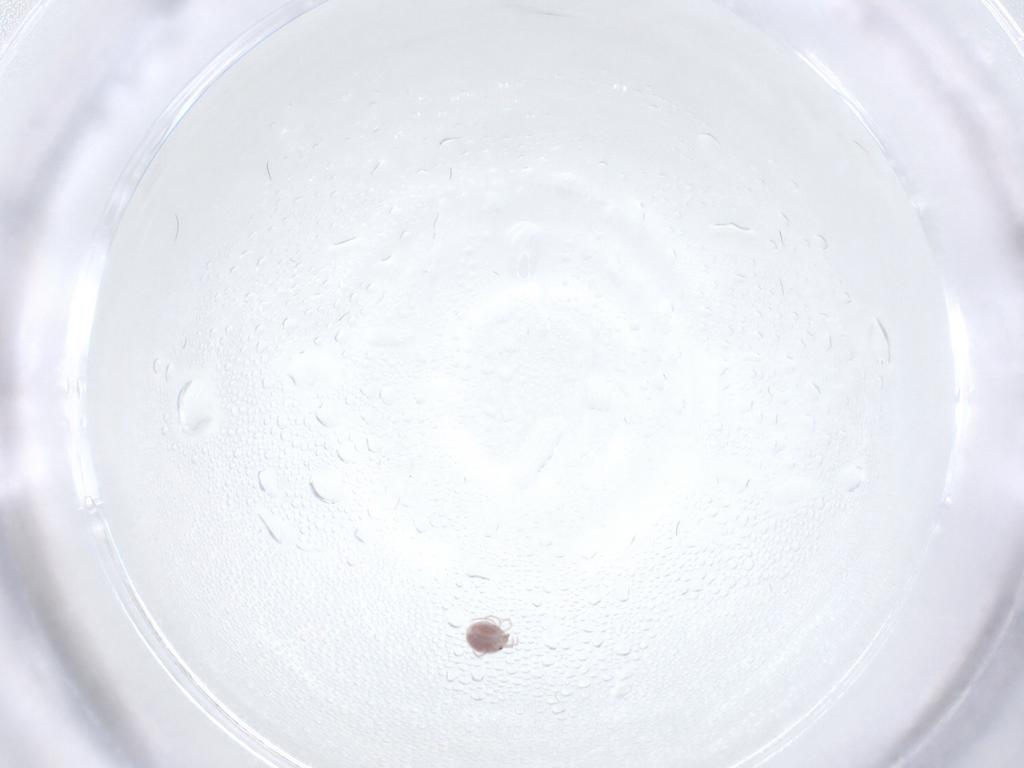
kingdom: Animalia
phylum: Arthropoda
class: Arachnida
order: Trombidiformes
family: Pionidae
